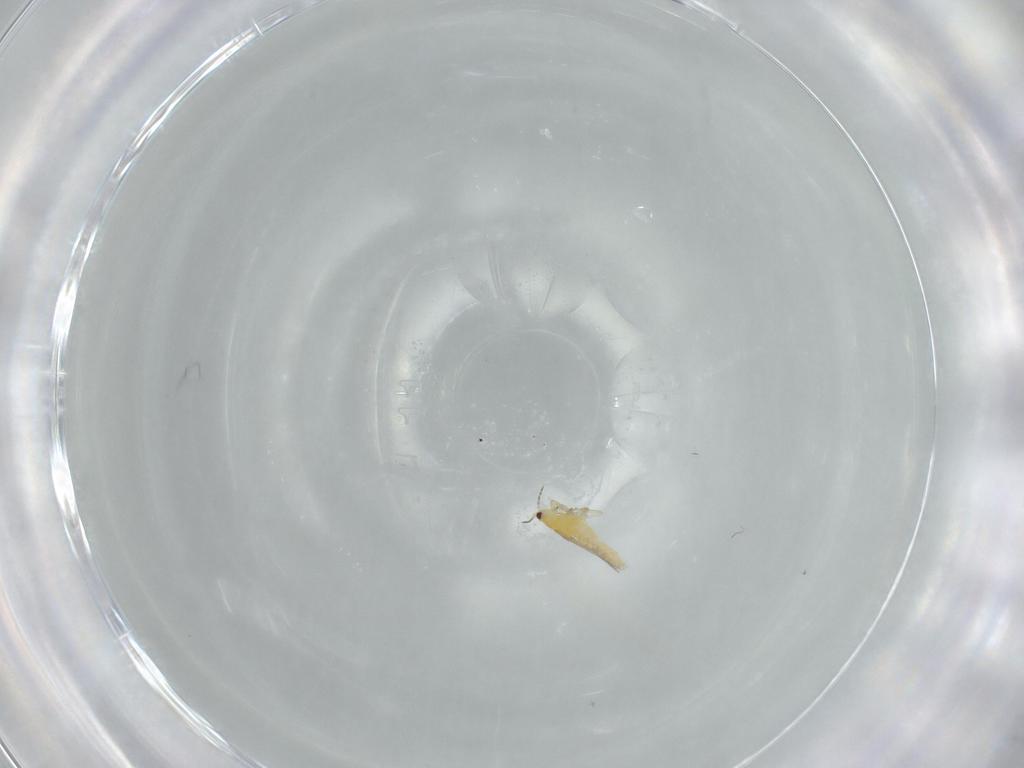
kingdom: Animalia
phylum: Arthropoda
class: Insecta
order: Thysanoptera
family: Thripidae
